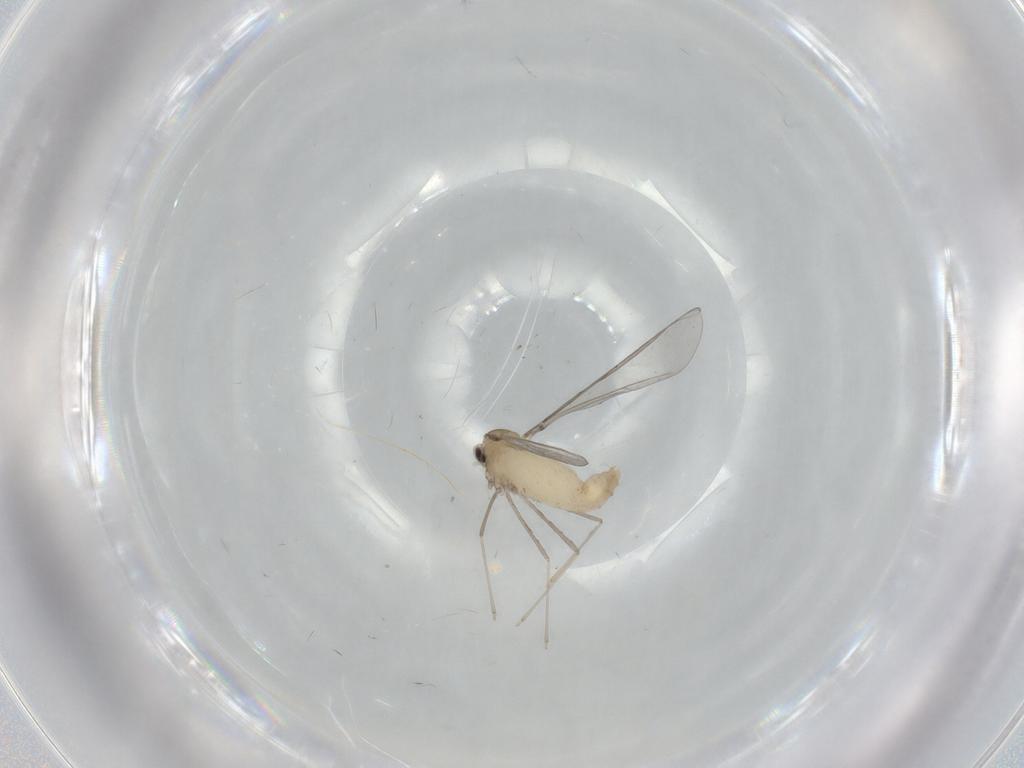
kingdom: Animalia
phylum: Arthropoda
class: Insecta
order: Diptera
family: Cecidomyiidae
